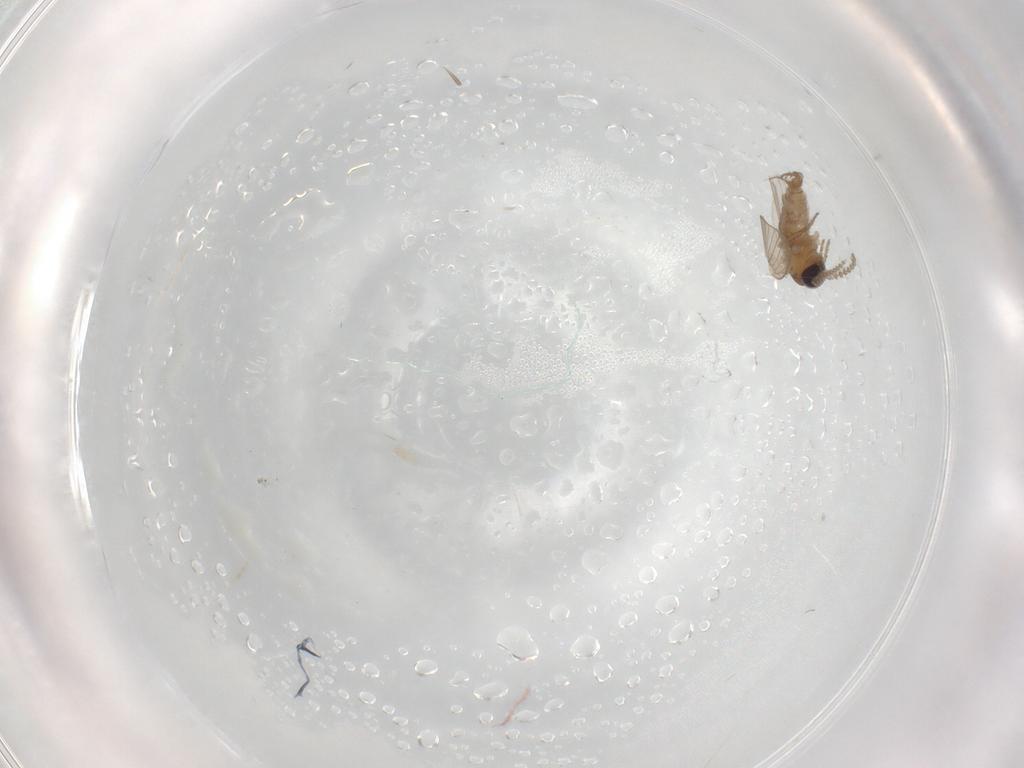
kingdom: Animalia
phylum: Arthropoda
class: Insecta
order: Diptera
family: Psychodidae
